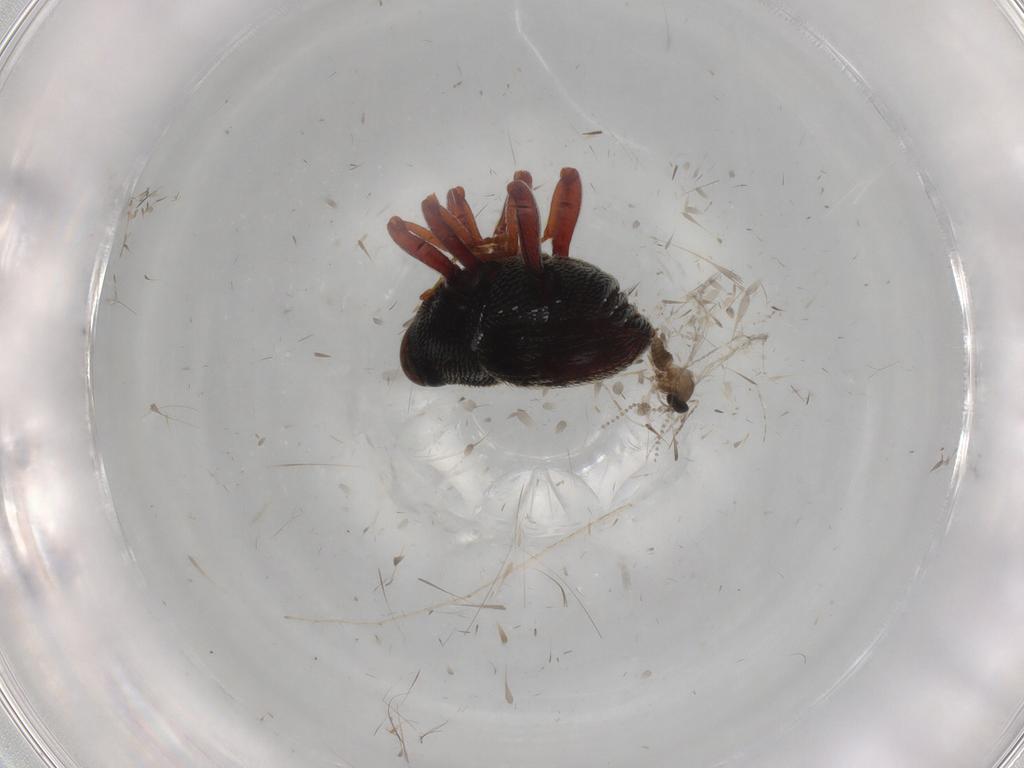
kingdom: Animalia
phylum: Arthropoda
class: Insecta
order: Diptera
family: Cecidomyiidae
